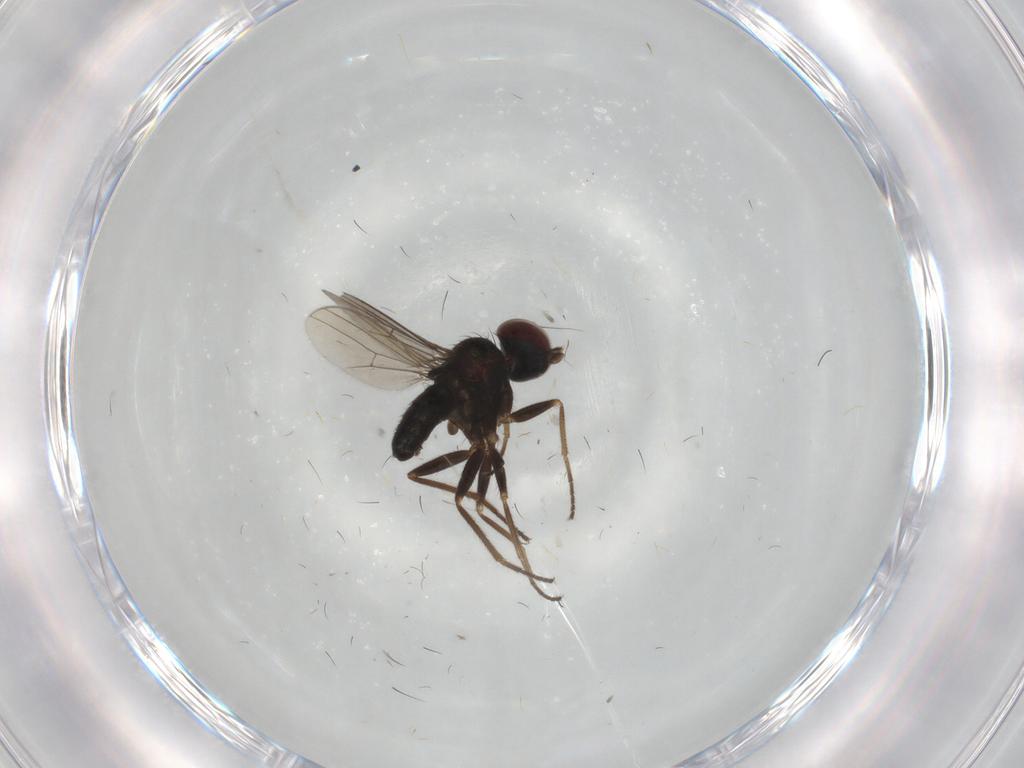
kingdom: Animalia
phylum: Arthropoda
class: Insecta
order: Diptera
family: Dolichopodidae
